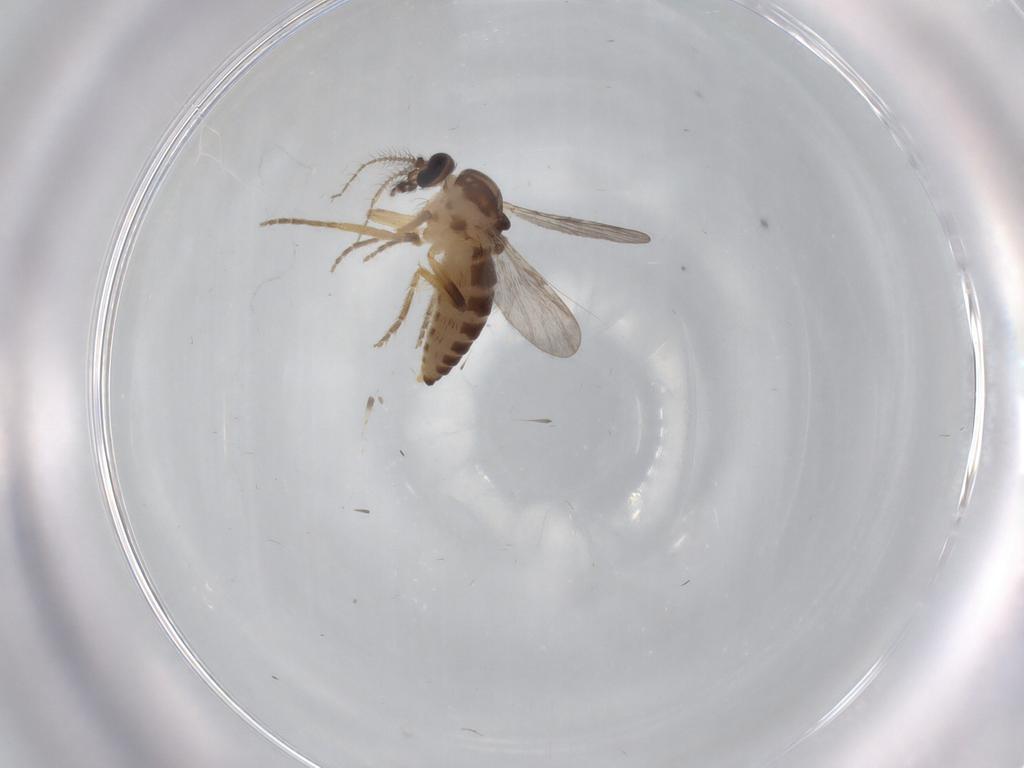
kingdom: Animalia
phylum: Arthropoda
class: Insecta
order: Diptera
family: Ceratopogonidae
